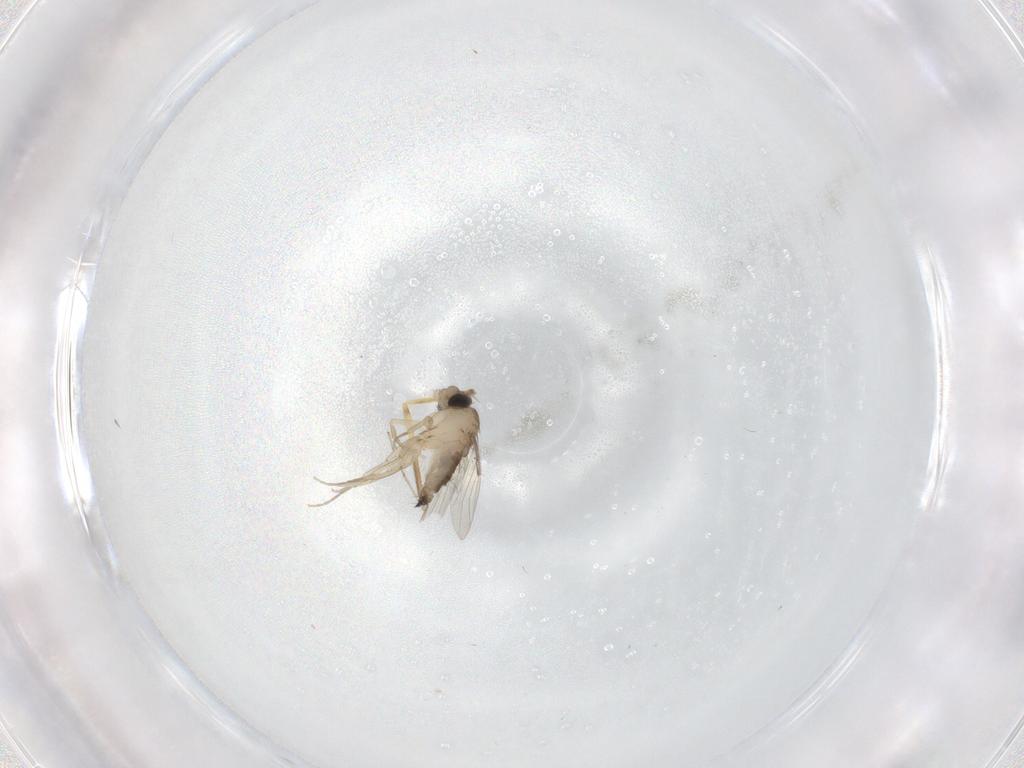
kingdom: Animalia
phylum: Arthropoda
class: Insecta
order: Diptera
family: Phoridae
